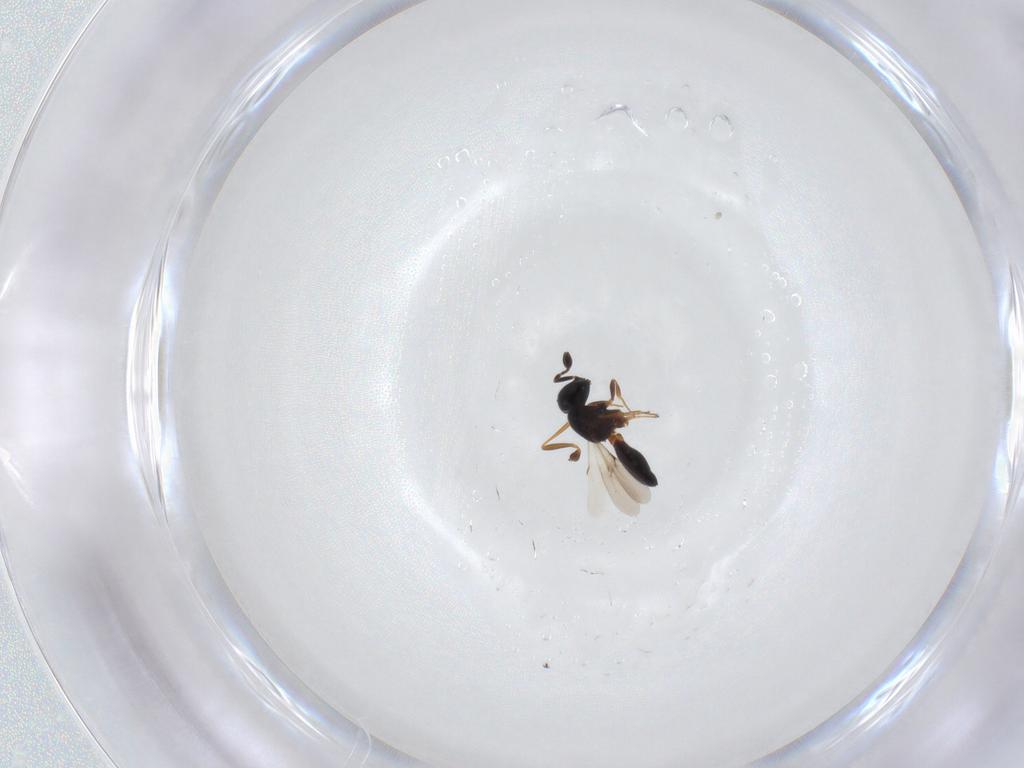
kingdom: Animalia
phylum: Arthropoda
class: Insecta
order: Hymenoptera
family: Scelionidae
